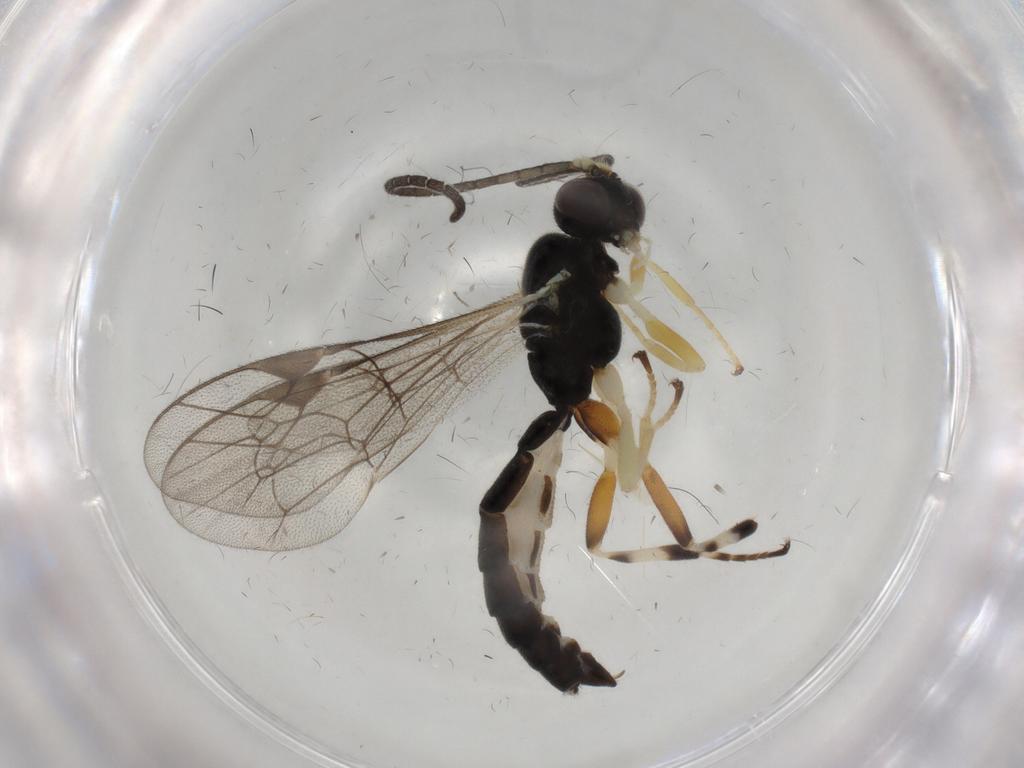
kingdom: Animalia
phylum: Arthropoda
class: Insecta
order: Hymenoptera
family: Ichneumonidae
